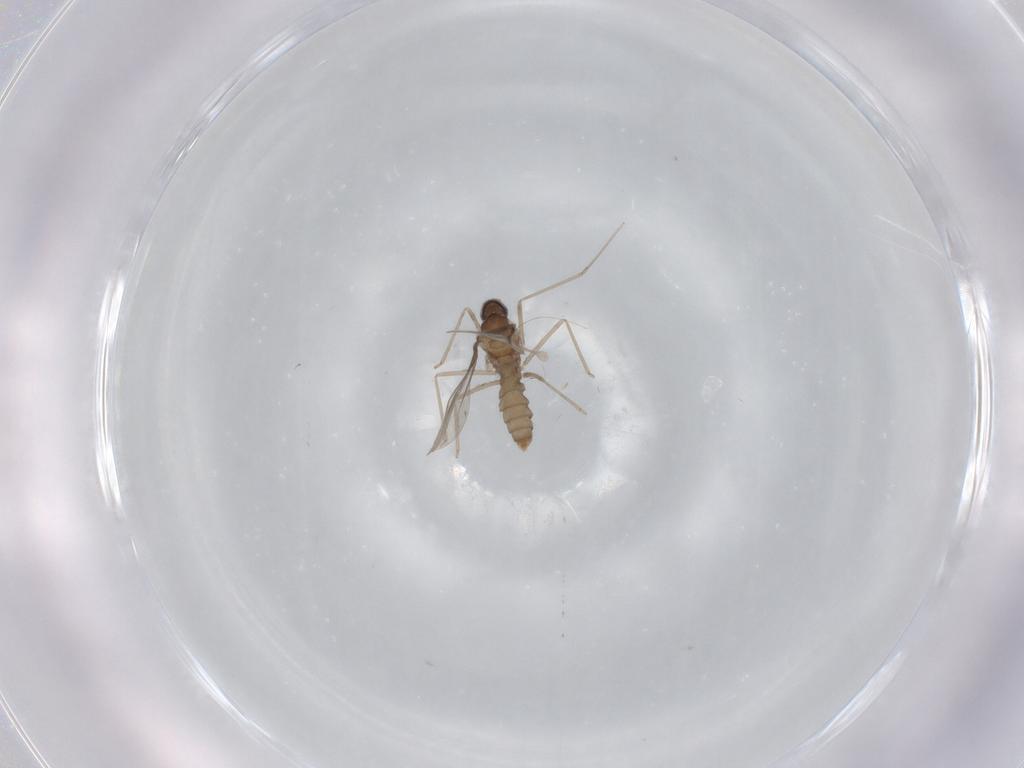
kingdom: Animalia
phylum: Arthropoda
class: Insecta
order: Diptera
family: Cecidomyiidae
